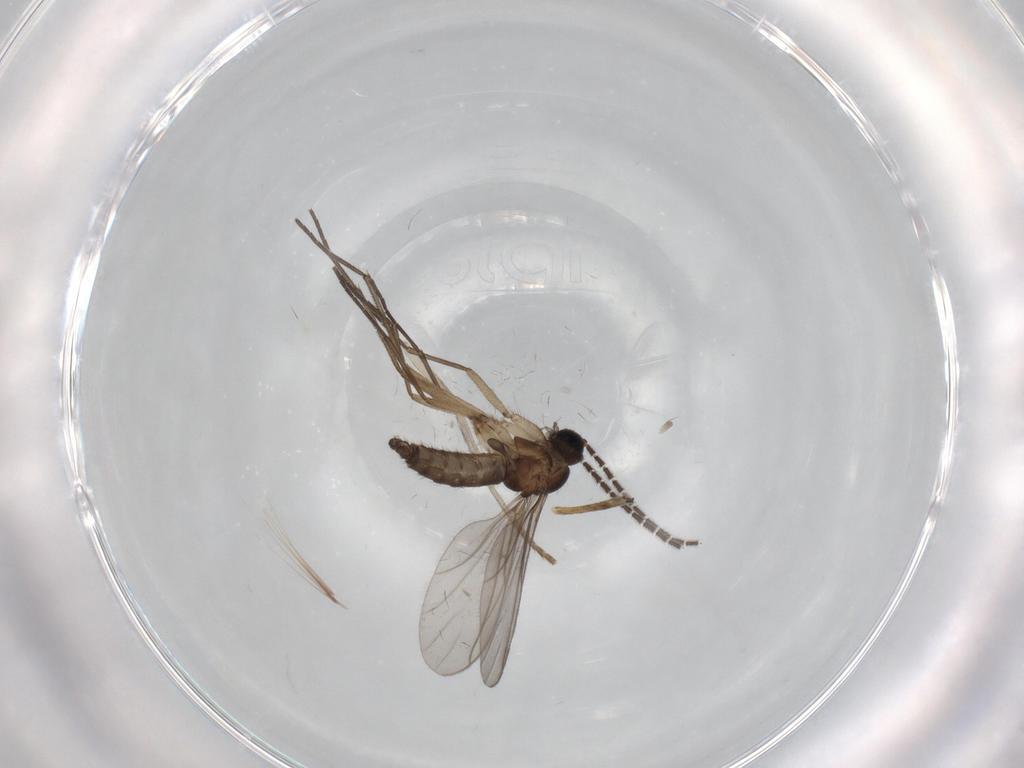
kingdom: Animalia
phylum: Arthropoda
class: Insecta
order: Diptera
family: Sciaridae
